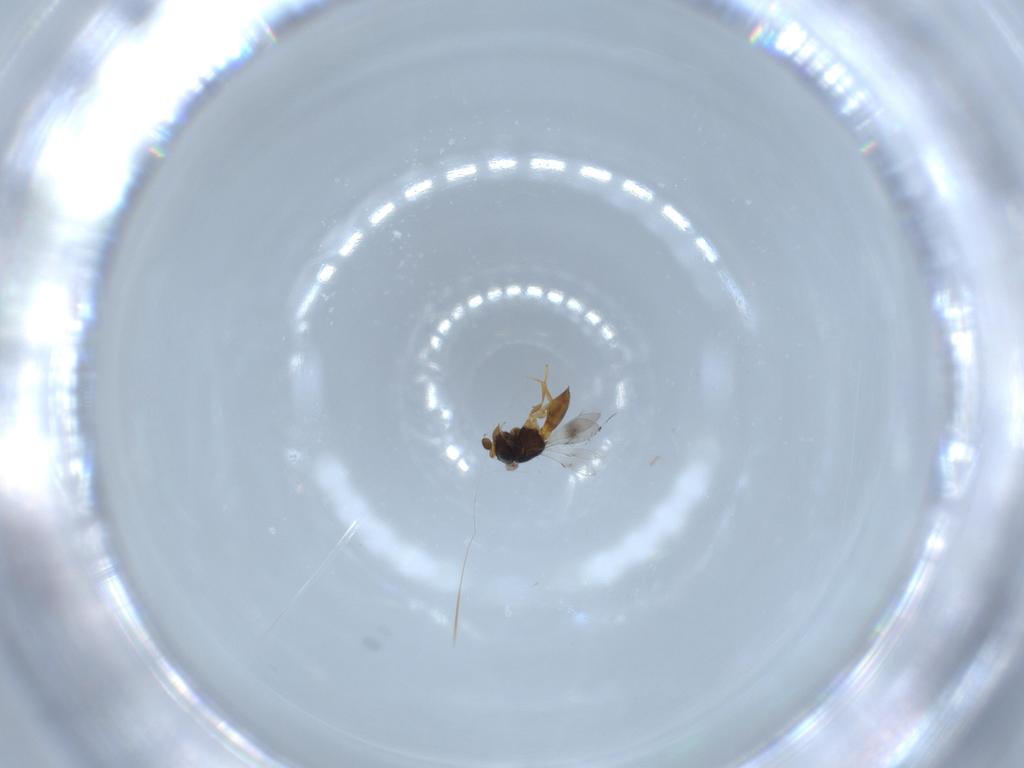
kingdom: Animalia
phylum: Arthropoda
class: Insecta
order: Hymenoptera
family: Scelionidae
